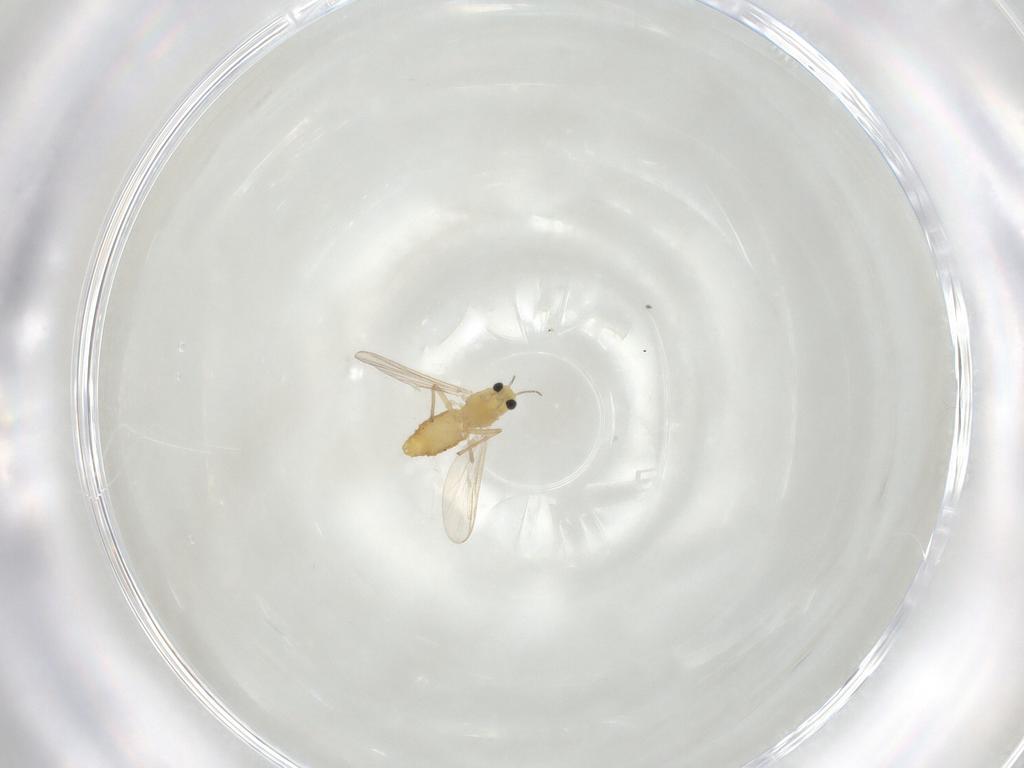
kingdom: Animalia
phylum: Arthropoda
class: Insecta
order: Diptera
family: Chironomidae
